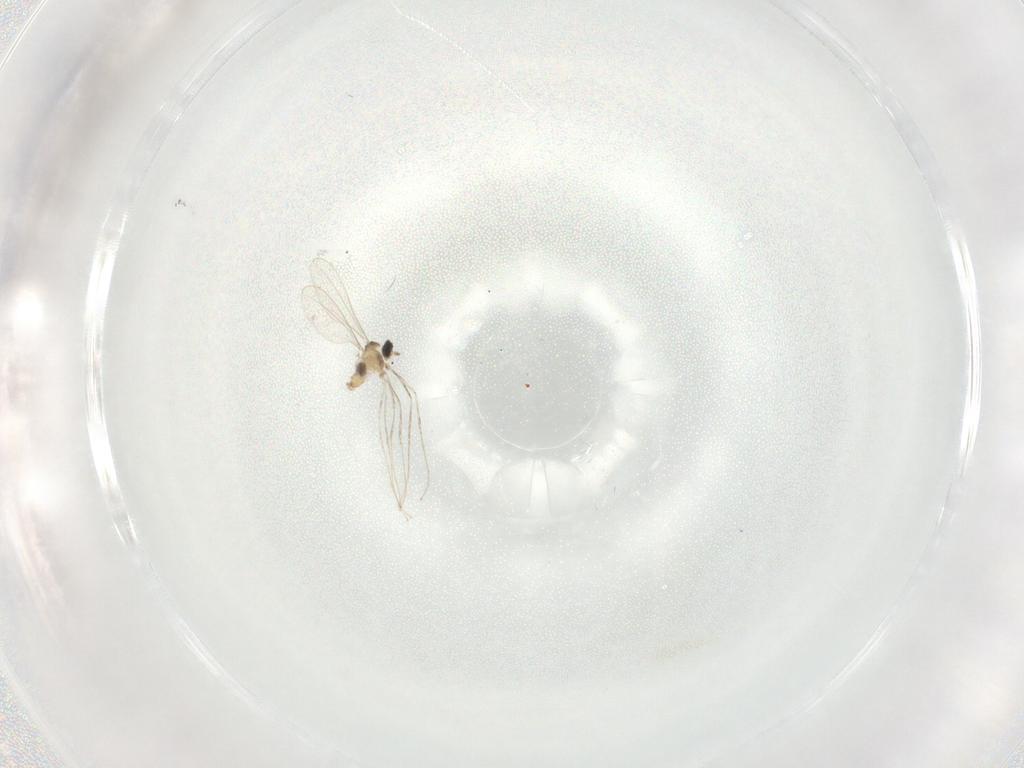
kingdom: Animalia
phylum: Arthropoda
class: Insecta
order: Diptera
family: Cecidomyiidae
